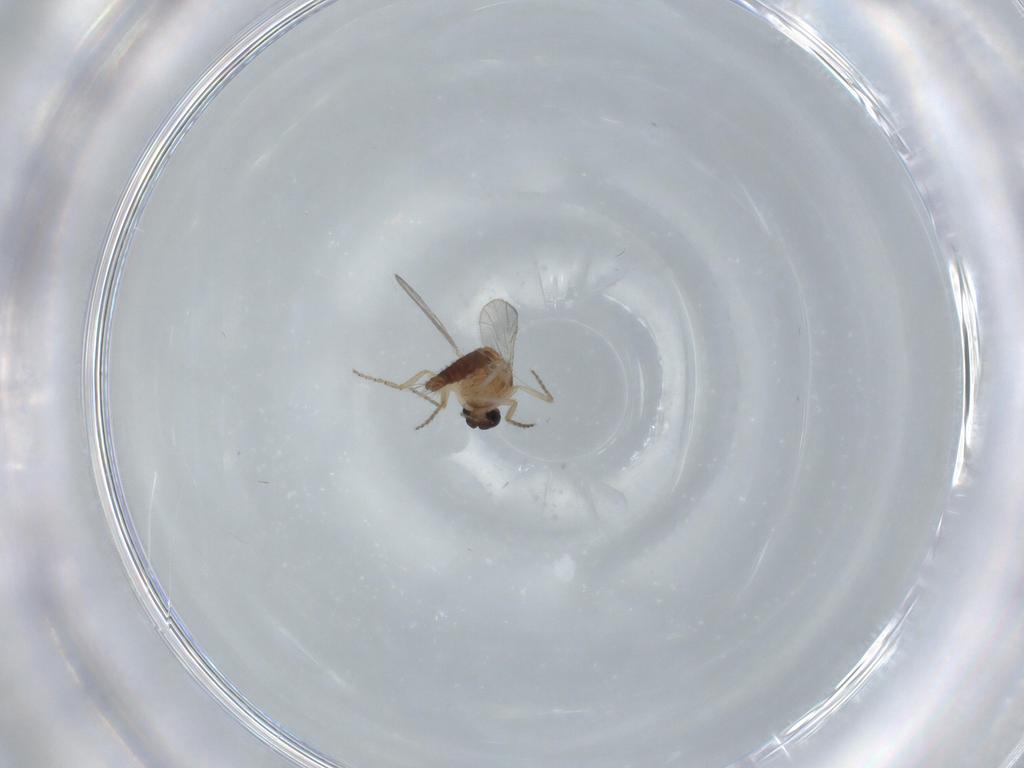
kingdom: Animalia
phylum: Arthropoda
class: Insecta
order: Diptera
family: Ceratopogonidae
